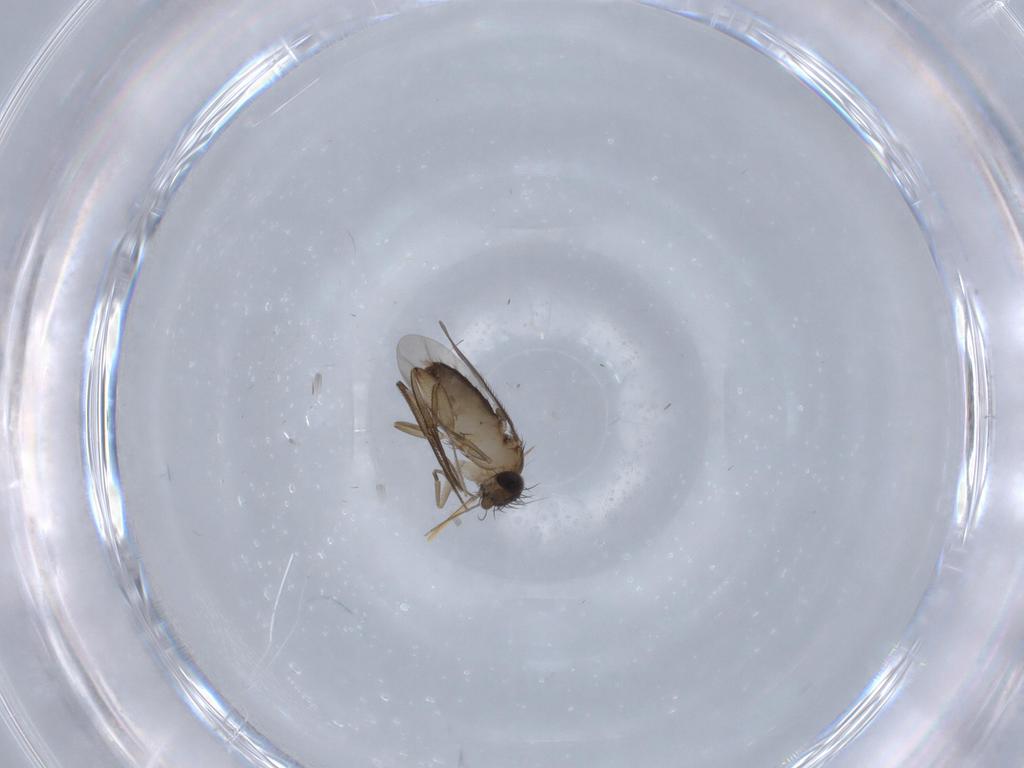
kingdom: Animalia
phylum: Arthropoda
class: Insecta
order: Diptera
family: Phoridae
